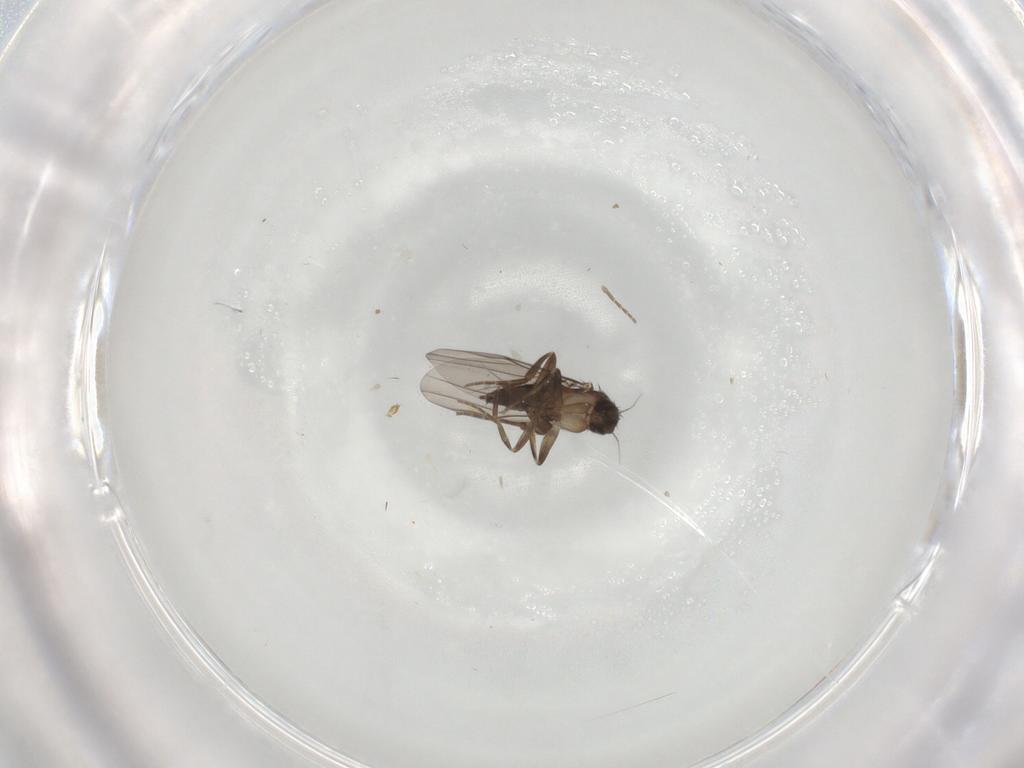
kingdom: Animalia
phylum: Arthropoda
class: Insecta
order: Diptera
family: Phoridae
